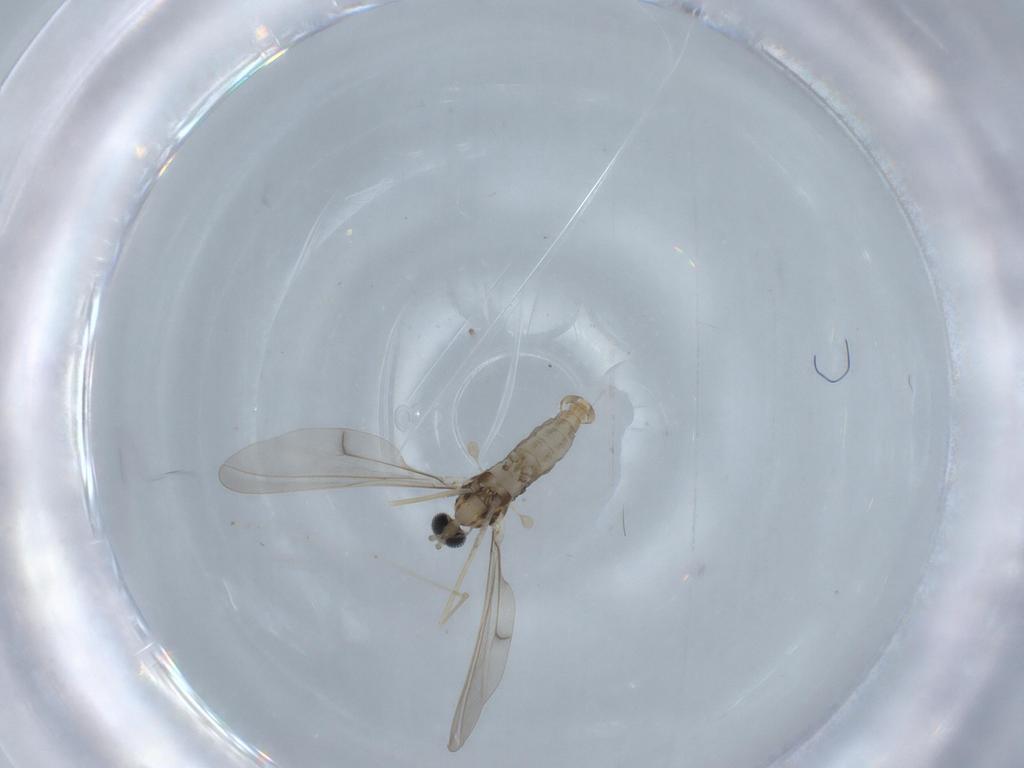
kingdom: Animalia
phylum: Arthropoda
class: Insecta
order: Diptera
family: Cecidomyiidae
